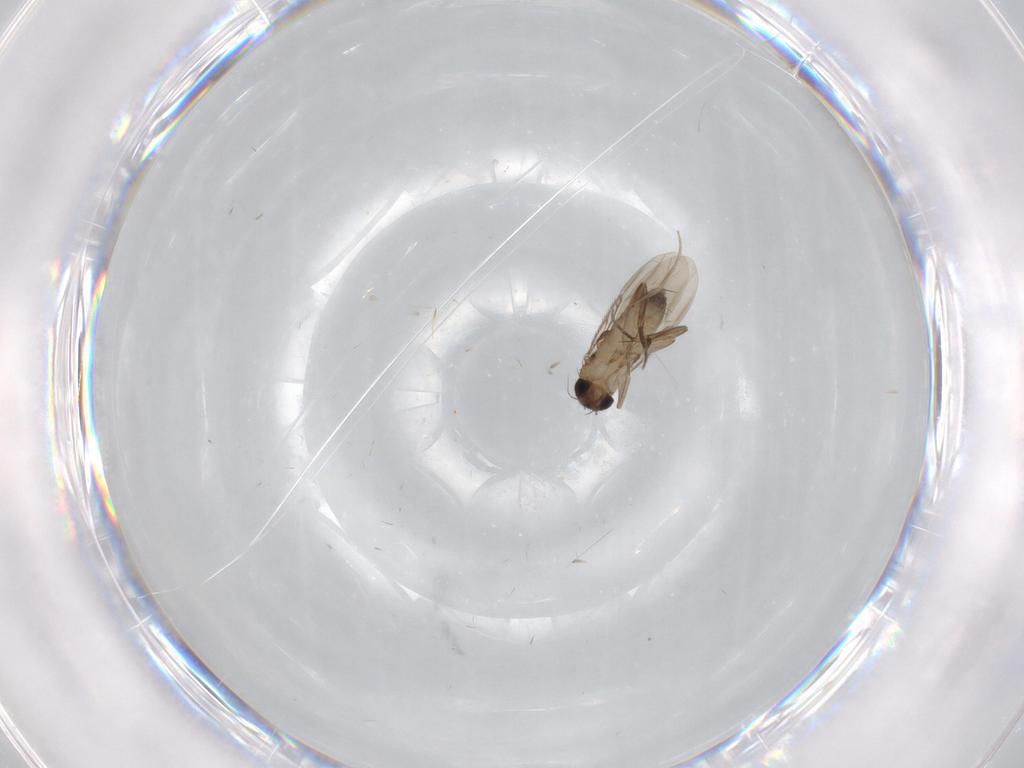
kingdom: Animalia
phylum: Arthropoda
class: Insecta
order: Diptera
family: Phoridae
